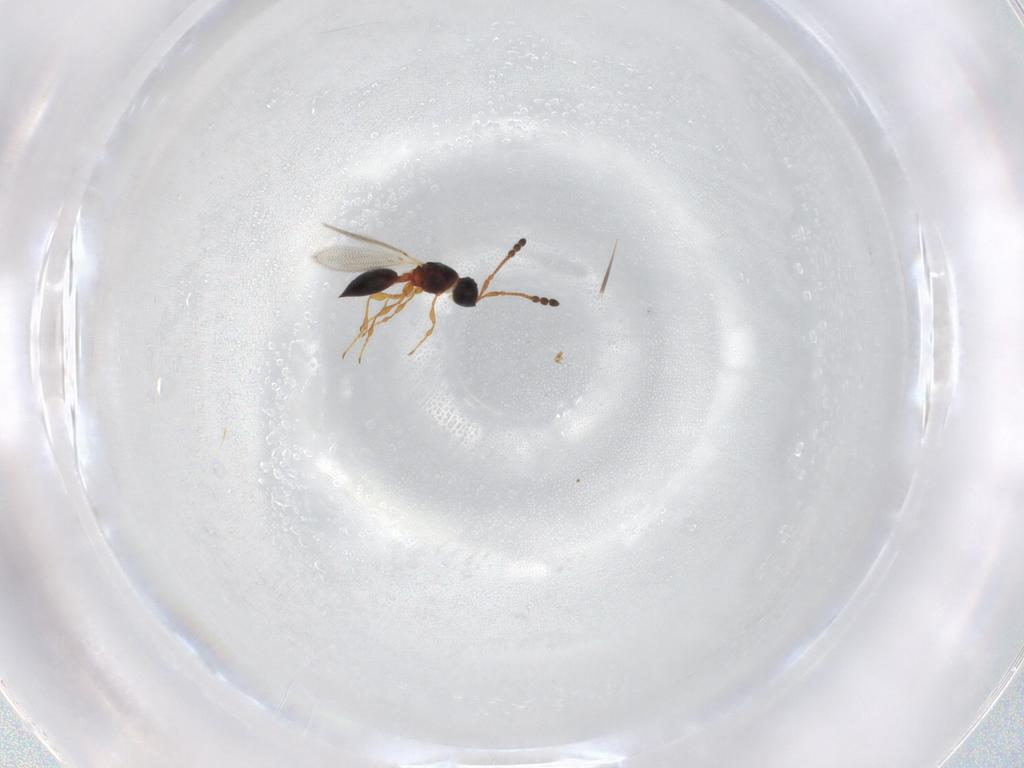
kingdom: Animalia
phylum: Arthropoda
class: Insecta
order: Hymenoptera
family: Diapriidae
